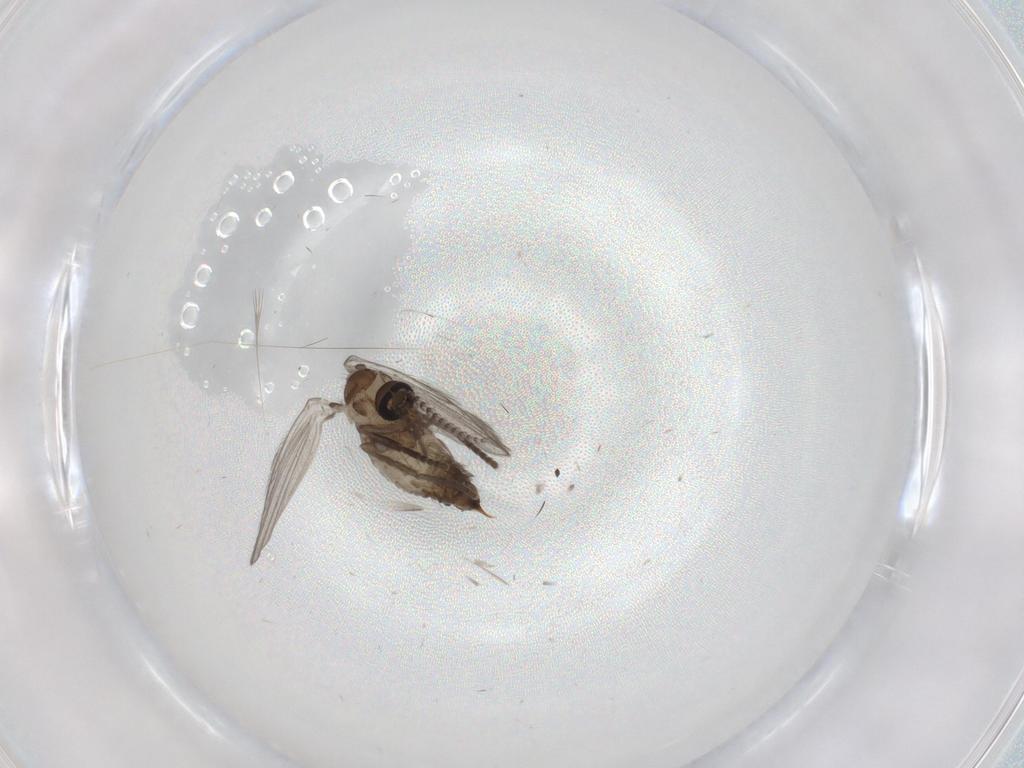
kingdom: Animalia
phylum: Arthropoda
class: Insecta
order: Diptera
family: Psychodidae
